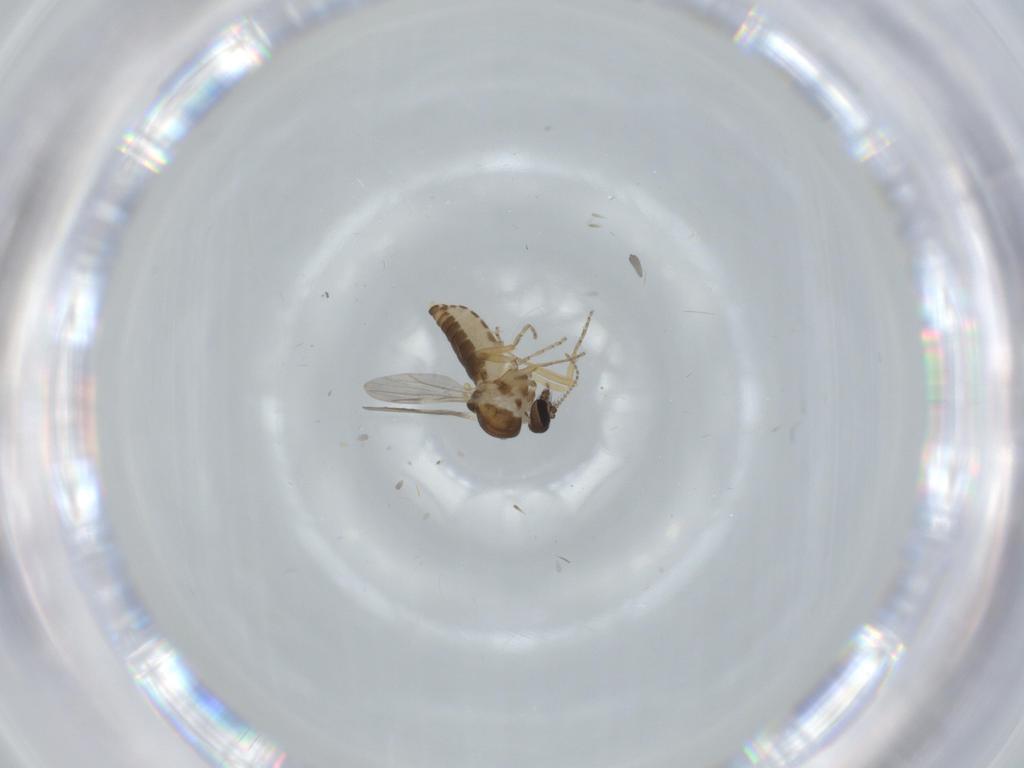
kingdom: Animalia
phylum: Arthropoda
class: Insecta
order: Diptera
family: Ceratopogonidae
